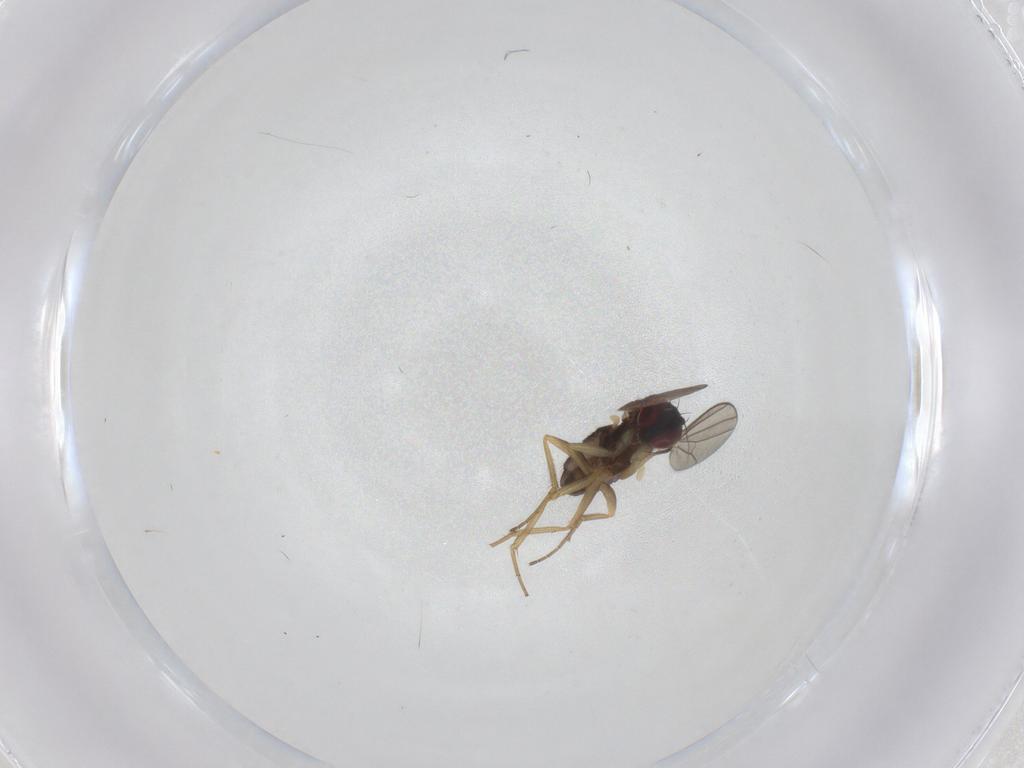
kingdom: Animalia
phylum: Arthropoda
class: Insecta
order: Diptera
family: Dolichopodidae
